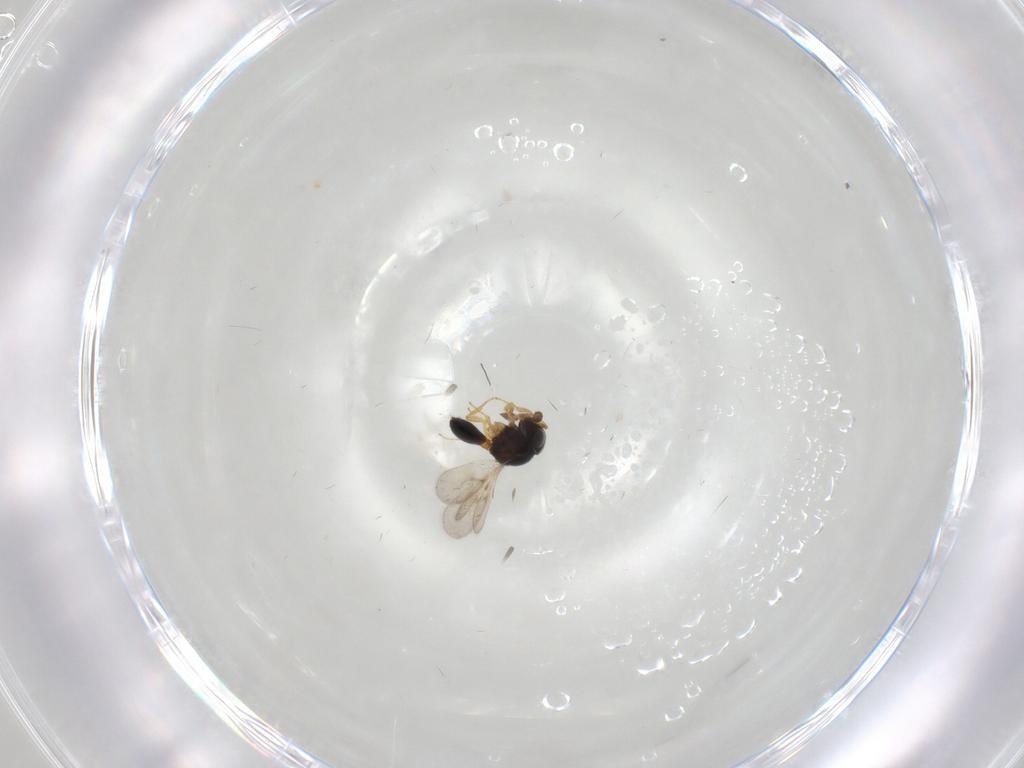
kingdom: Animalia
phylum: Arthropoda
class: Insecta
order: Hymenoptera
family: Scelionidae
